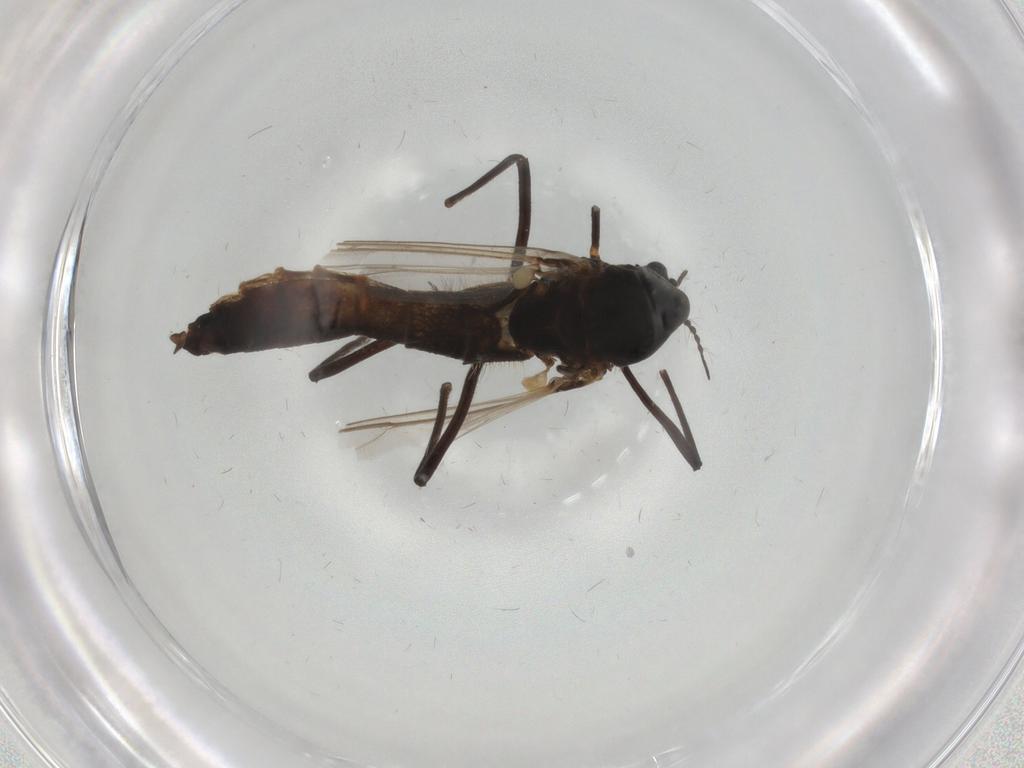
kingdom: Animalia
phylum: Arthropoda
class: Insecta
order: Diptera
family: Chironomidae
